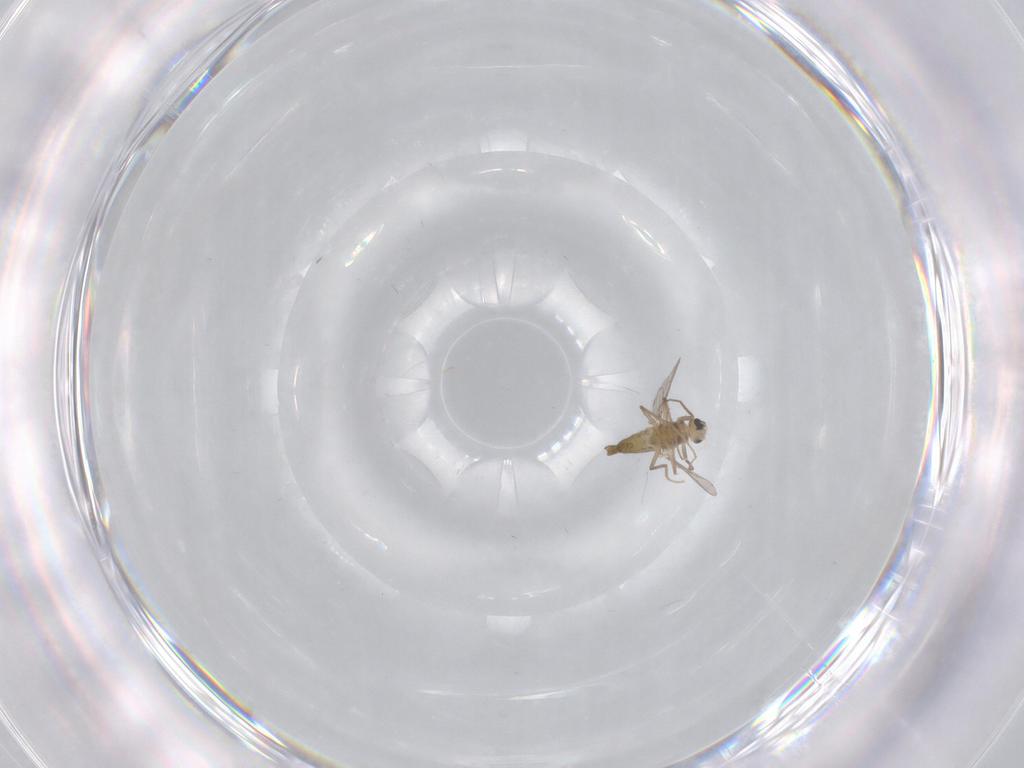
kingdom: Animalia
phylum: Arthropoda
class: Insecta
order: Diptera
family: Chironomidae
